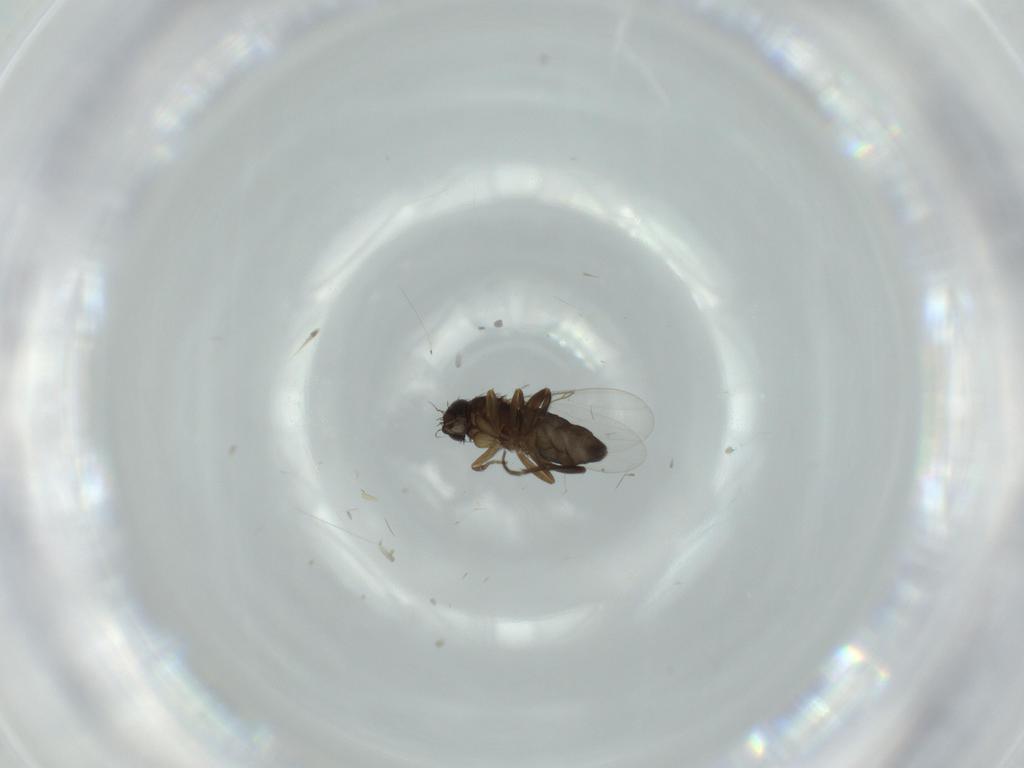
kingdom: Animalia
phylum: Arthropoda
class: Insecta
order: Diptera
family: Phoridae
